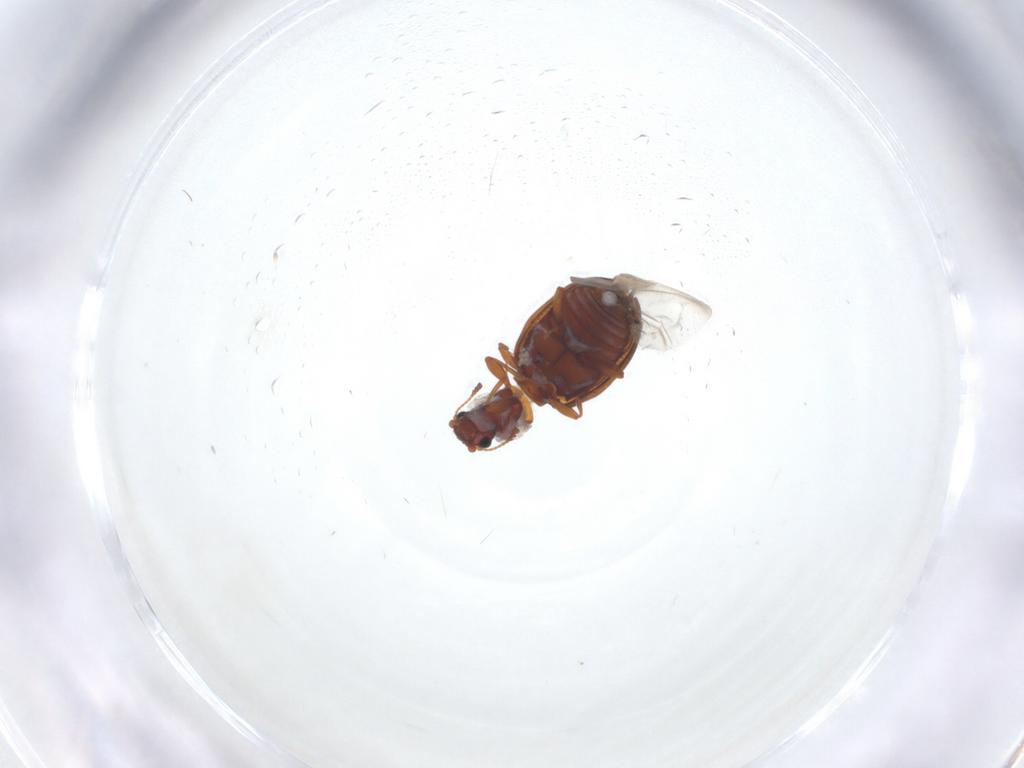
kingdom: Animalia
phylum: Arthropoda
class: Insecta
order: Coleoptera
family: Latridiidae
